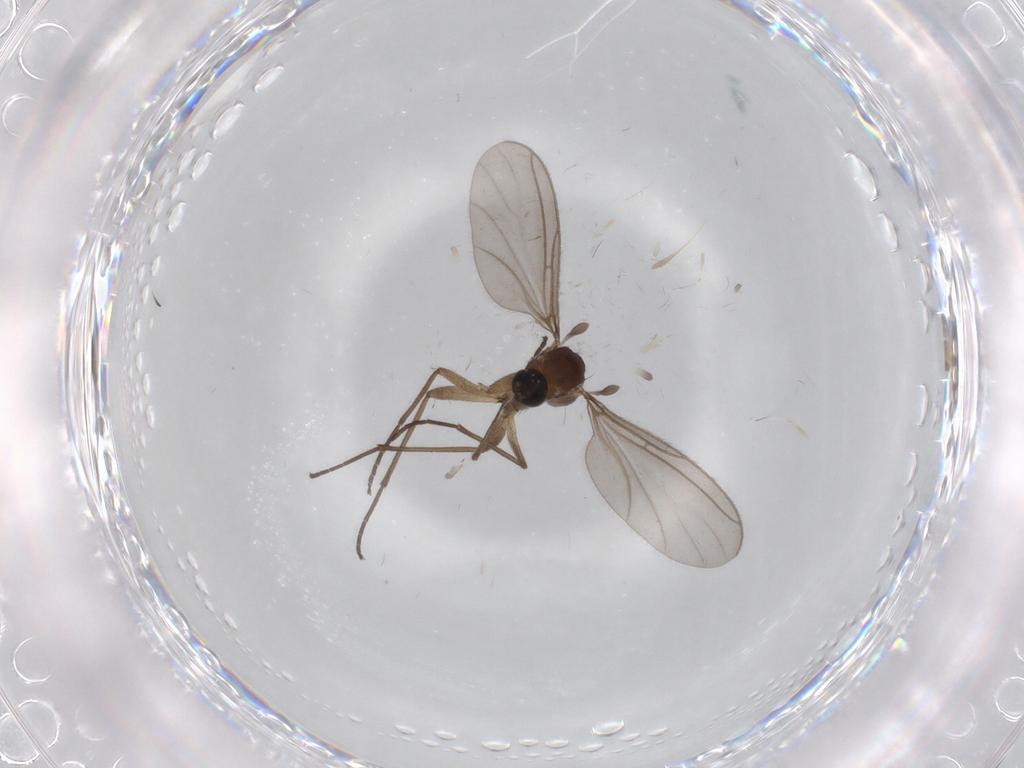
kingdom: Animalia
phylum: Arthropoda
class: Insecta
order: Diptera
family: Sciaridae
